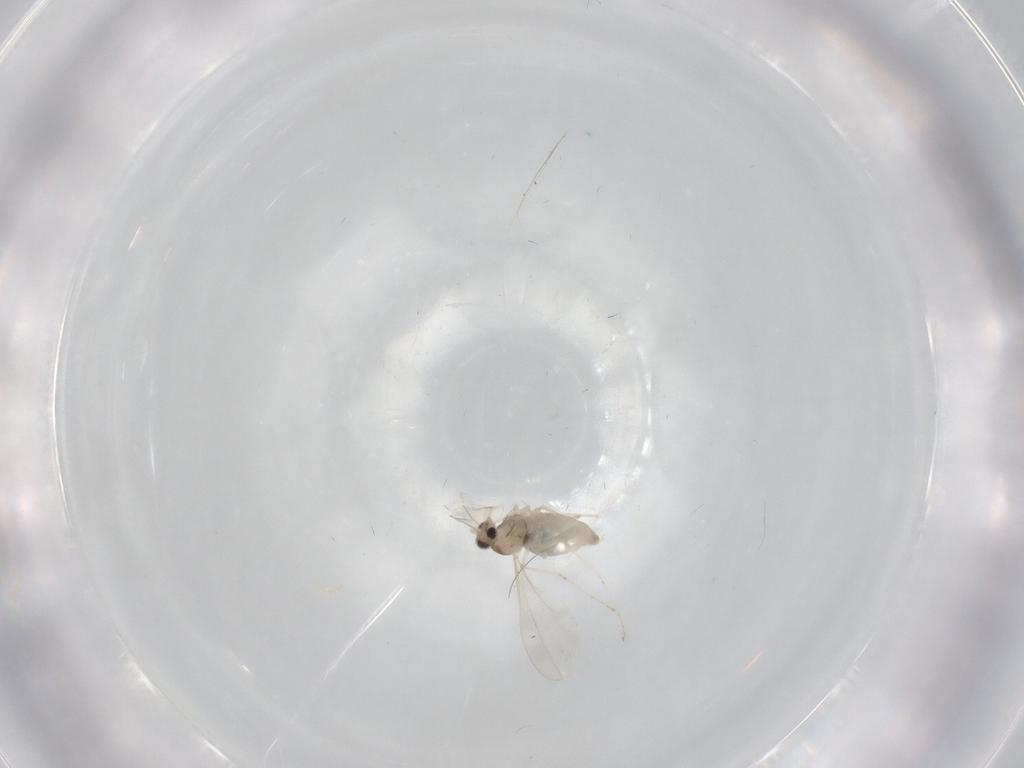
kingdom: Animalia
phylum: Arthropoda
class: Insecta
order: Diptera
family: Cecidomyiidae
